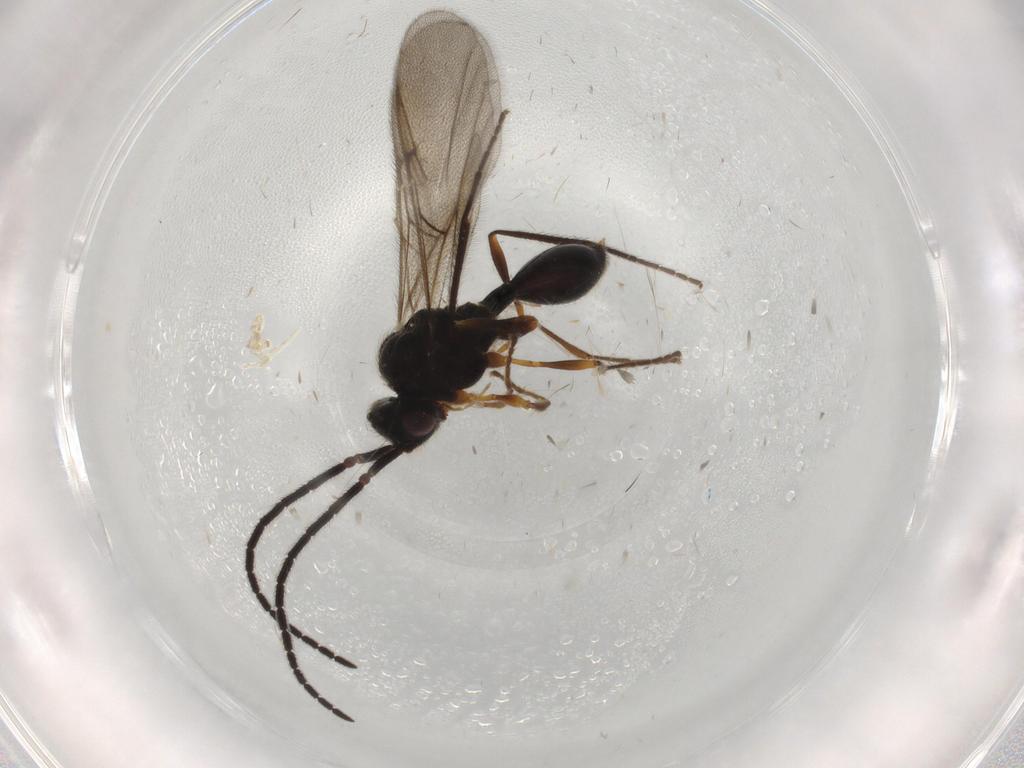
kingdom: Animalia
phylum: Arthropoda
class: Insecta
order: Hymenoptera
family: Diapriidae
